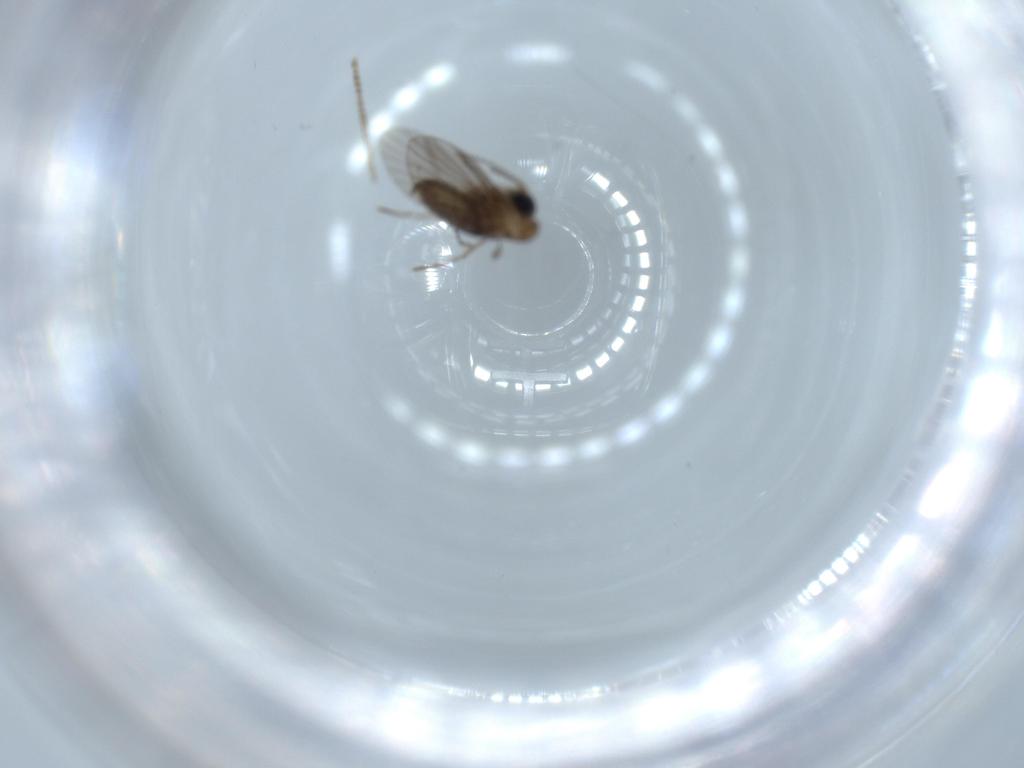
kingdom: Animalia
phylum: Arthropoda
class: Insecta
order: Diptera
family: Psychodidae
